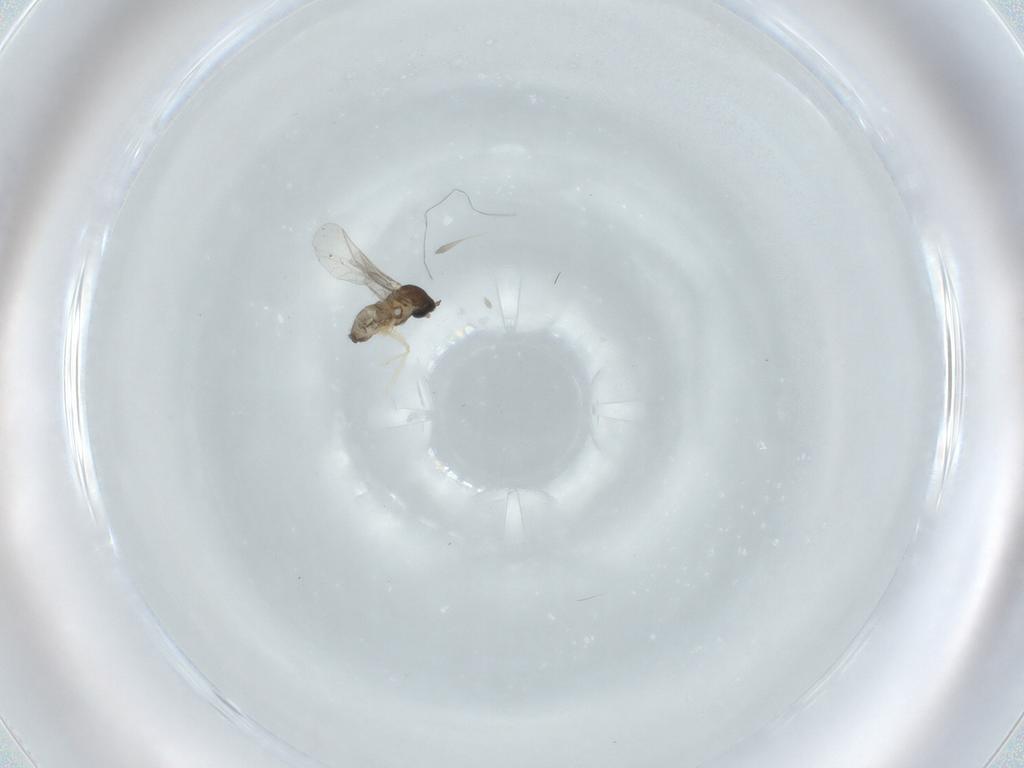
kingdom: Animalia
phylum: Arthropoda
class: Insecta
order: Diptera
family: Cecidomyiidae
